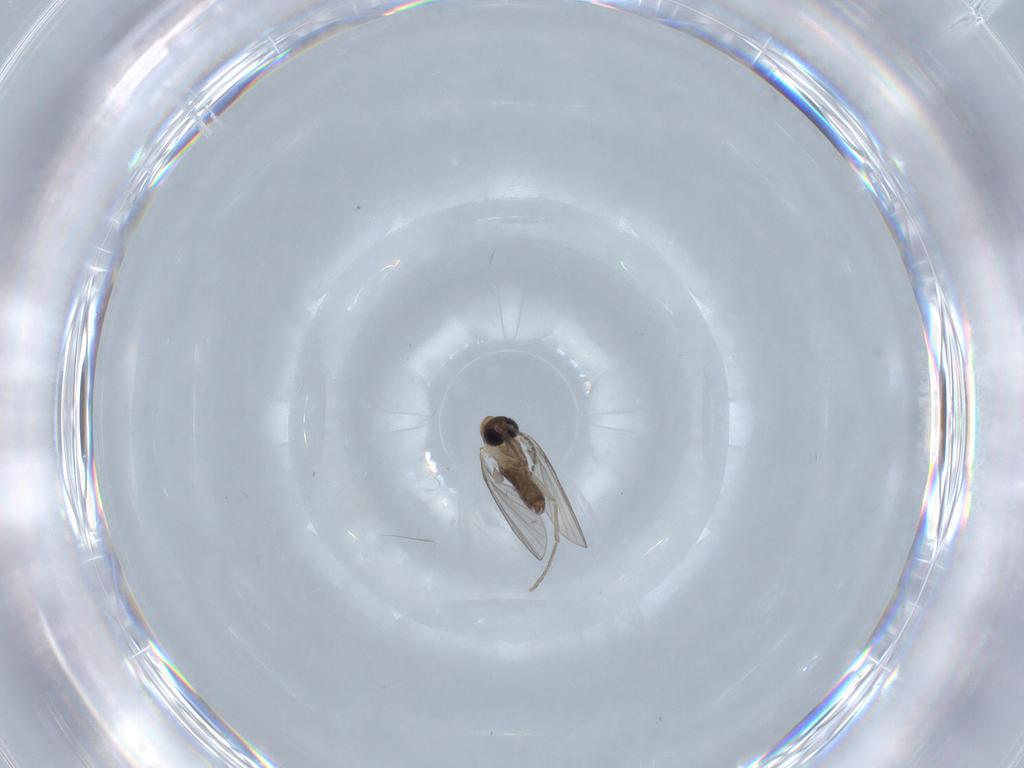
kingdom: Animalia
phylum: Arthropoda
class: Insecta
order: Diptera
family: Psychodidae
